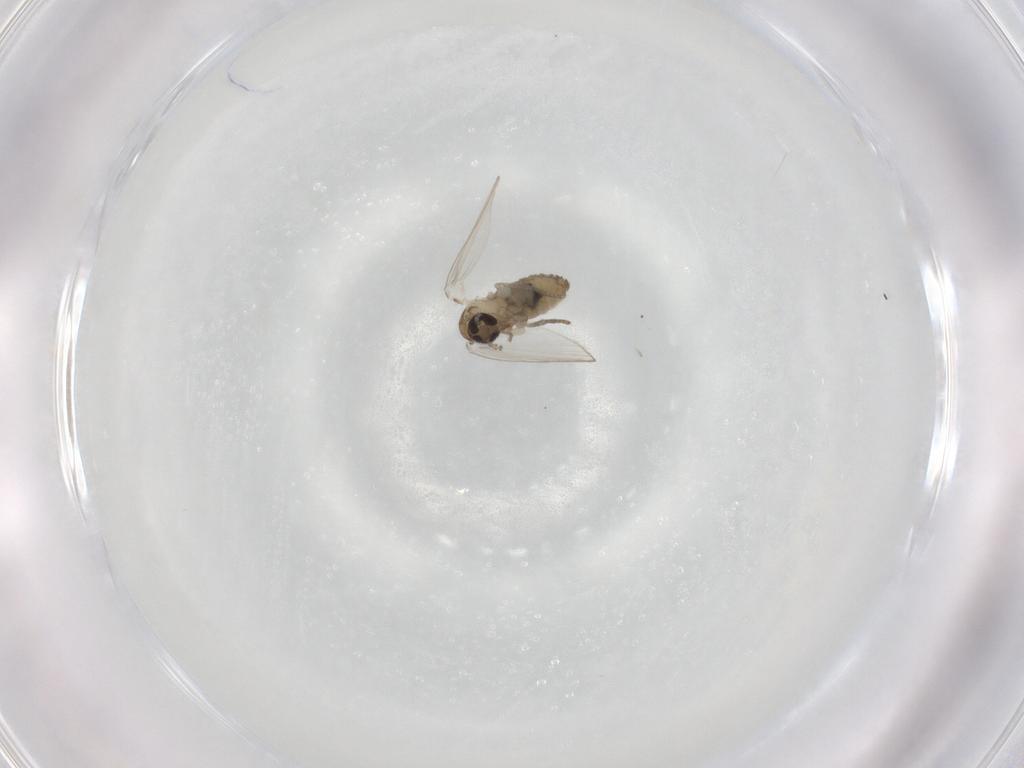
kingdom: Animalia
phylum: Arthropoda
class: Insecta
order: Diptera
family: Psychodidae
